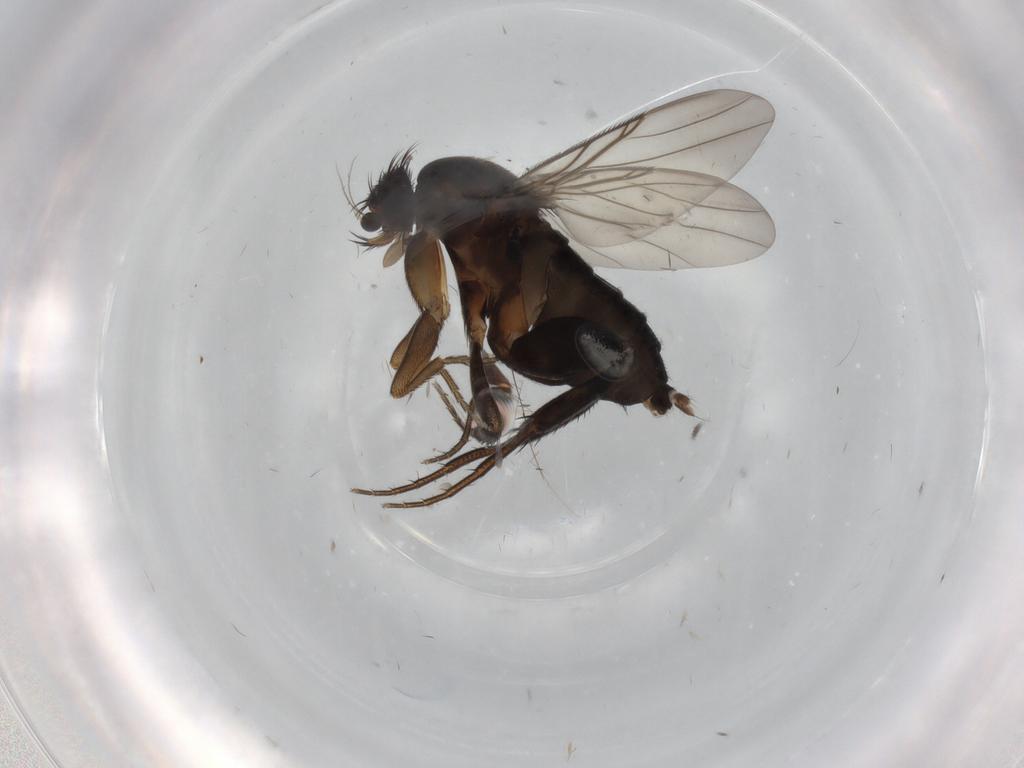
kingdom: Animalia
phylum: Arthropoda
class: Insecta
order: Diptera
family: Phoridae
